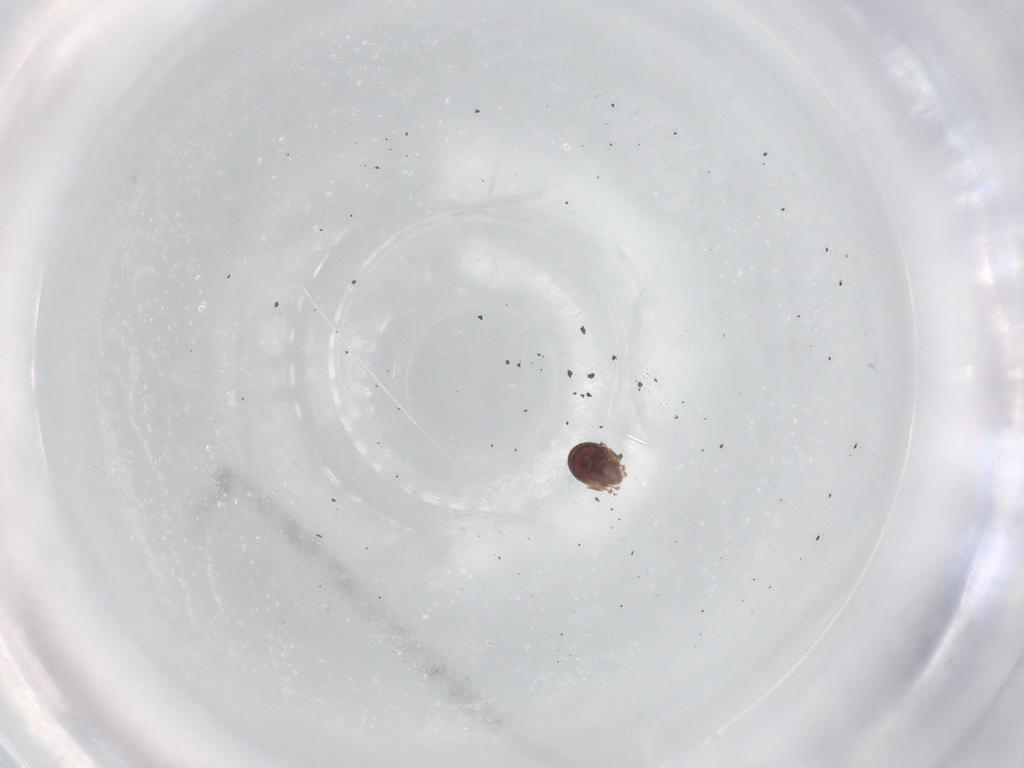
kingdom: Animalia
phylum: Arthropoda
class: Arachnida
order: Sarcoptiformes
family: Phenopelopidae
